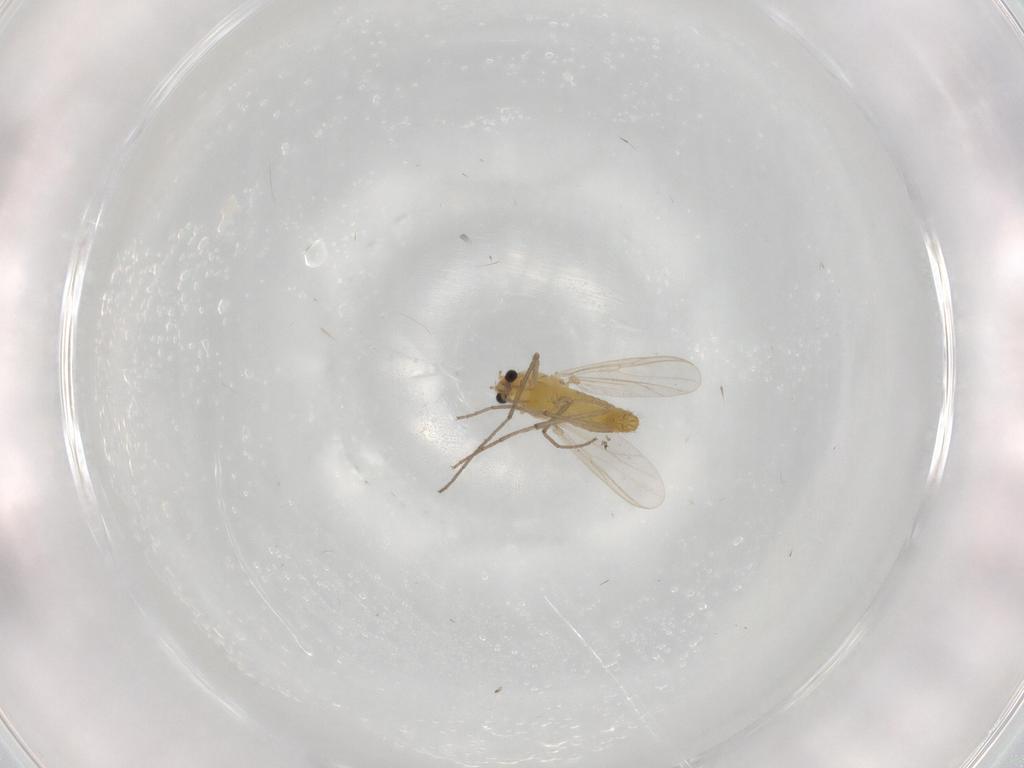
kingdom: Animalia
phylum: Arthropoda
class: Insecta
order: Diptera
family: Chironomidae
